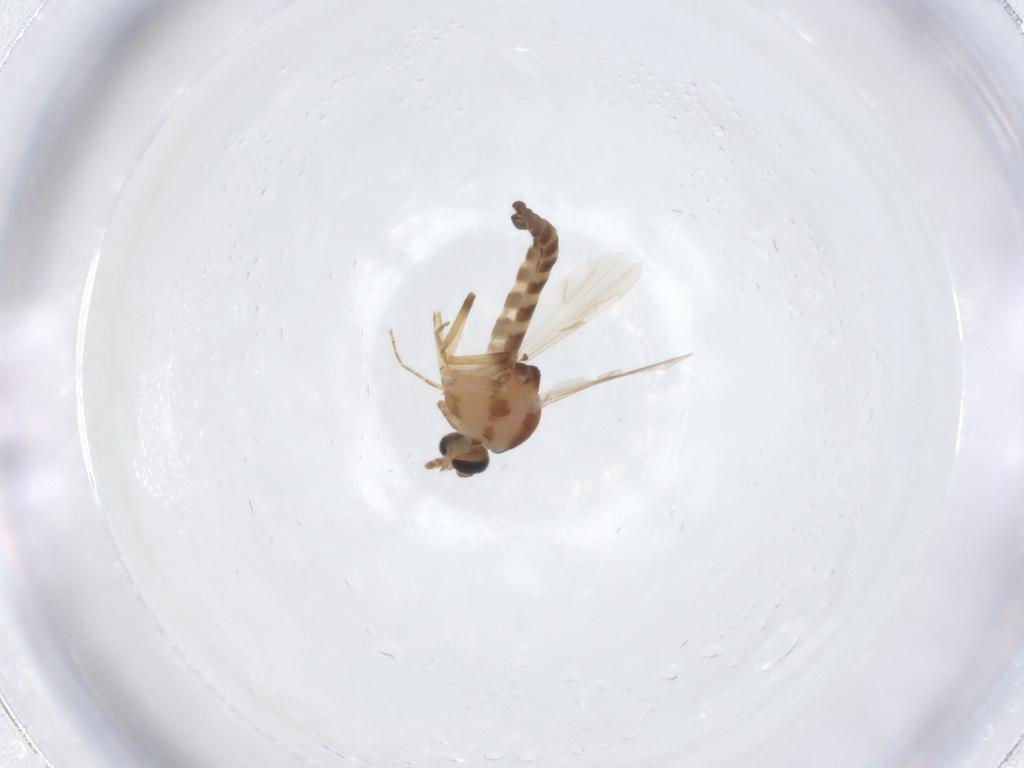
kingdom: Animalia
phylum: Arthropoda
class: Insecta
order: Diptera
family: Ceratopogonidae
